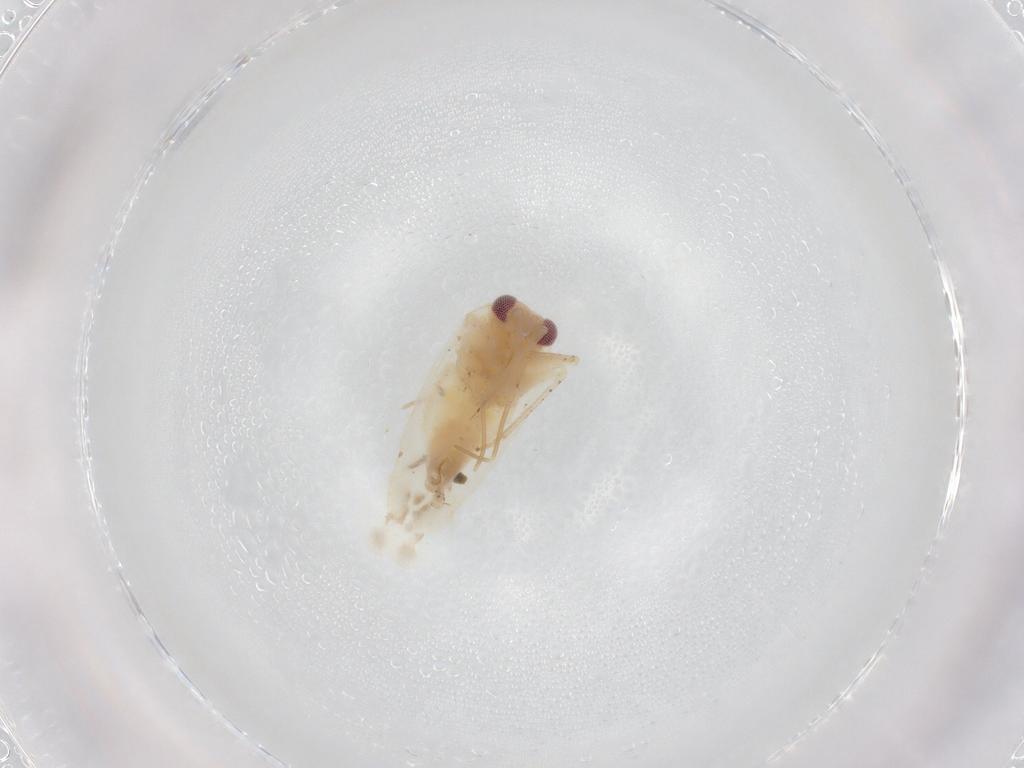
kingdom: Animalia
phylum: Arthropoda
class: Insecta
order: Hemiptera
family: Miridae
